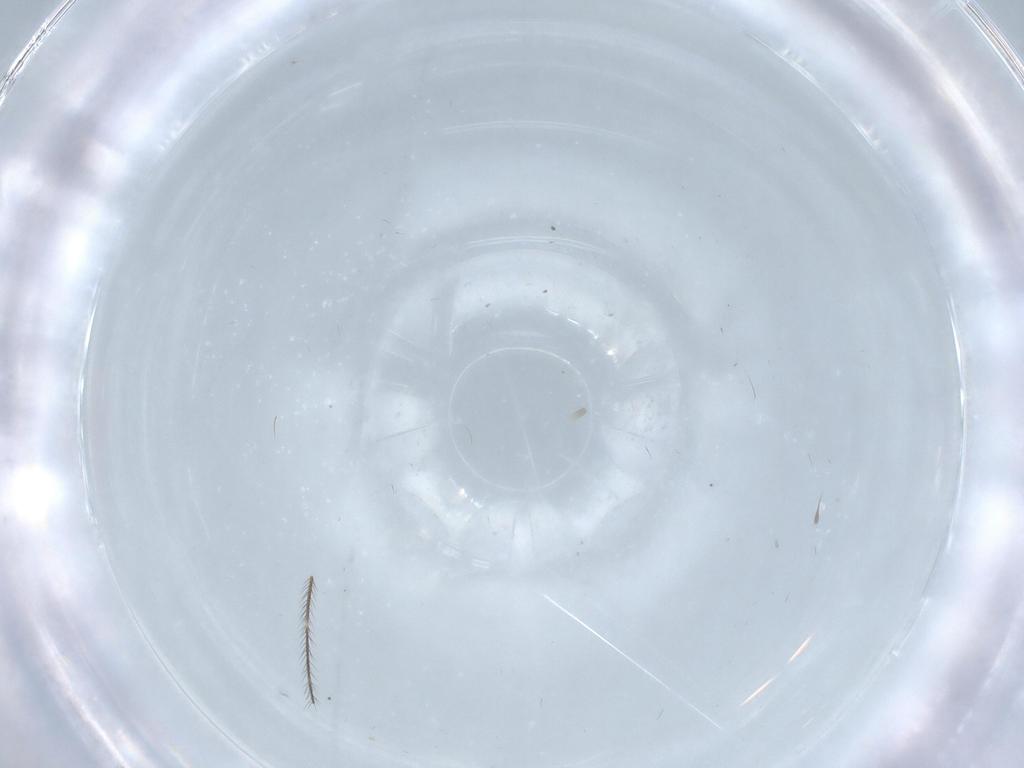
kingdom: Animalia
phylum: Arthropoda
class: Insecta
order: Psocodea
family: Ptiloneuridae
